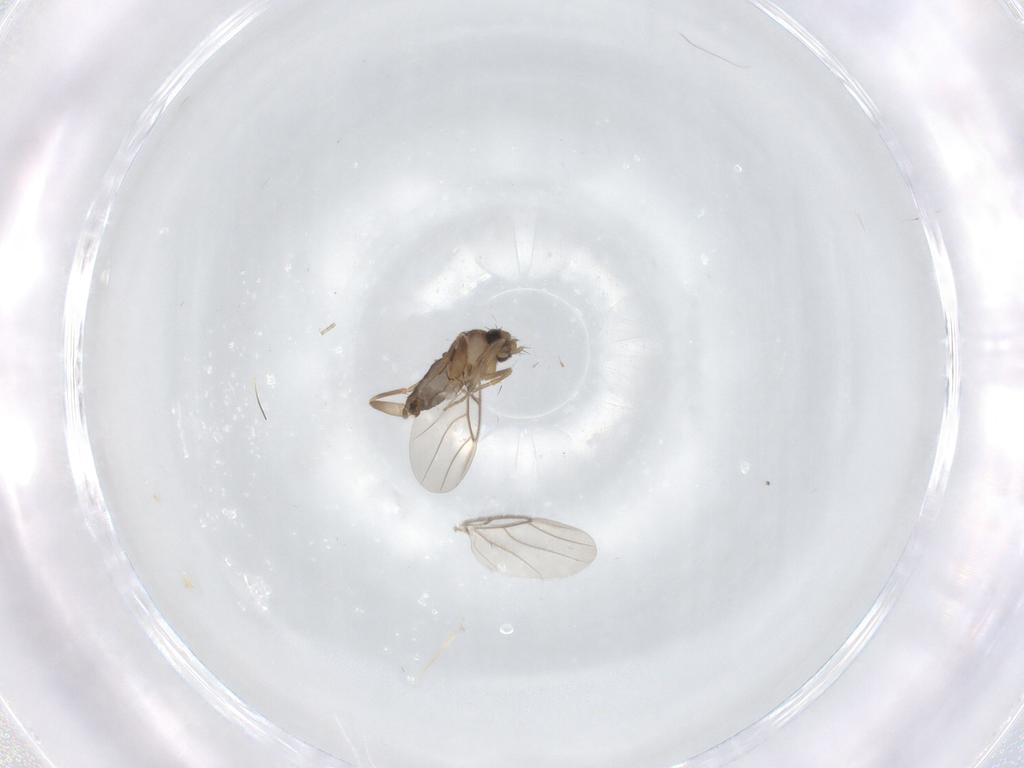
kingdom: Animalia
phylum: Arthropoda
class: Insecta
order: Diptera
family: Phoridae
